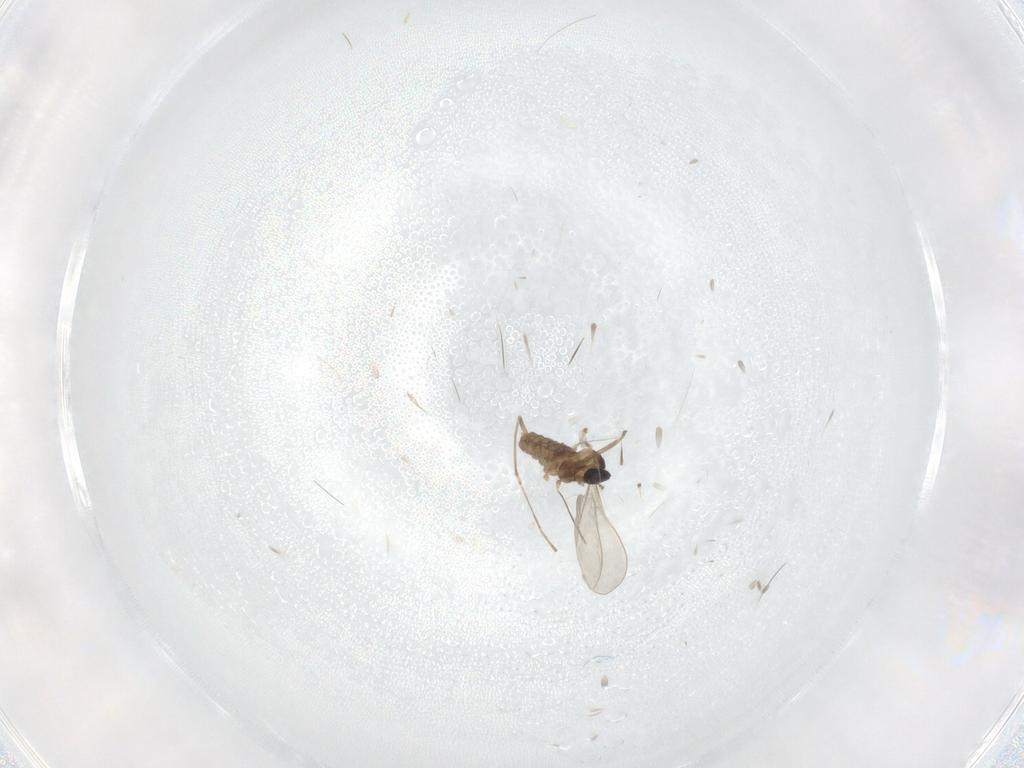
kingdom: Animalia
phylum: Arthropoda
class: Insecta
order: Diptera
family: Cecidomyiidae
